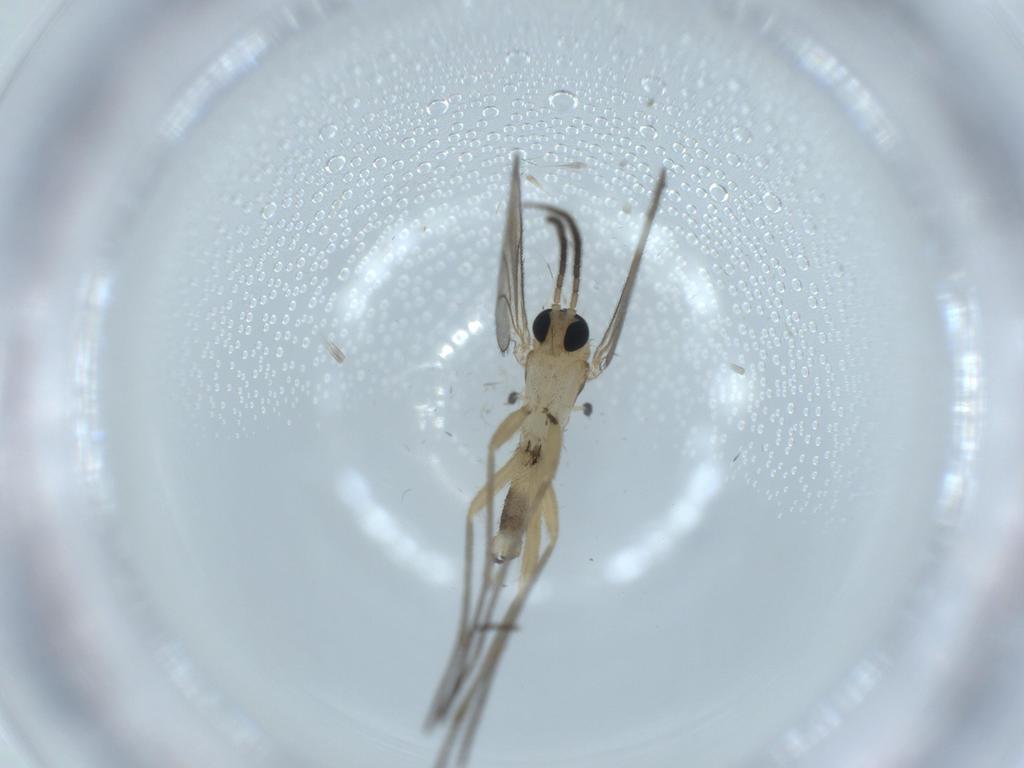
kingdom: Animalia
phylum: Arthropoda
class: Insecta
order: Diptera
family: Sciaridae
